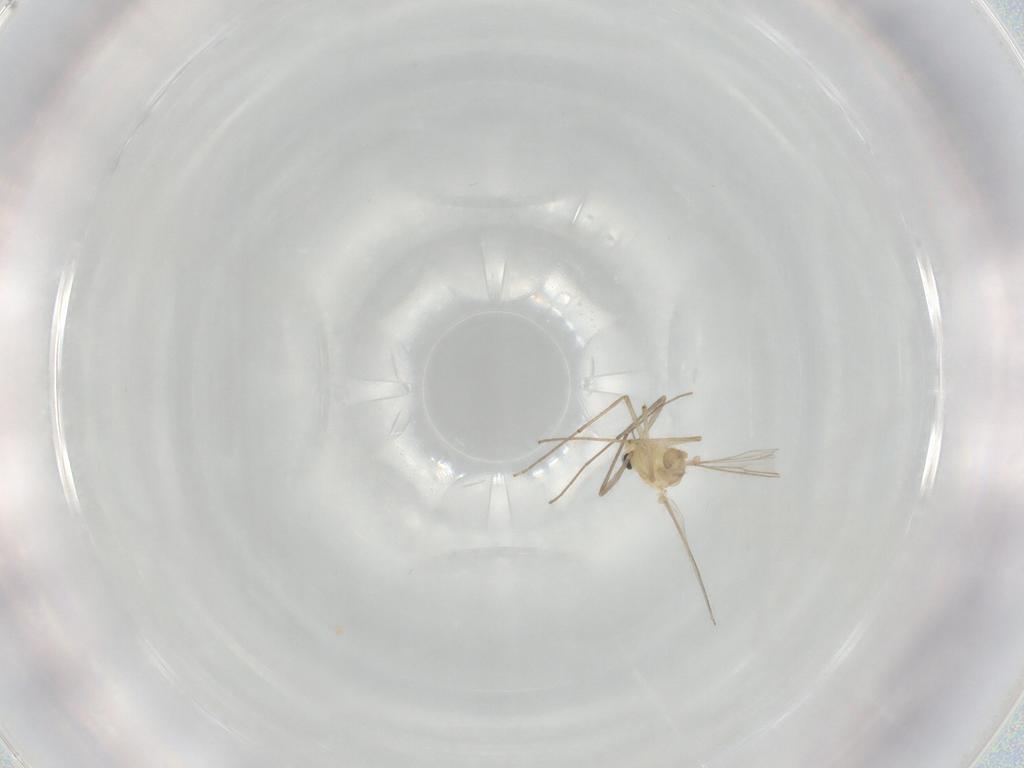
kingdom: Animalia
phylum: Arthropoda
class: Insecta
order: Diptera
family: Chironomidae
